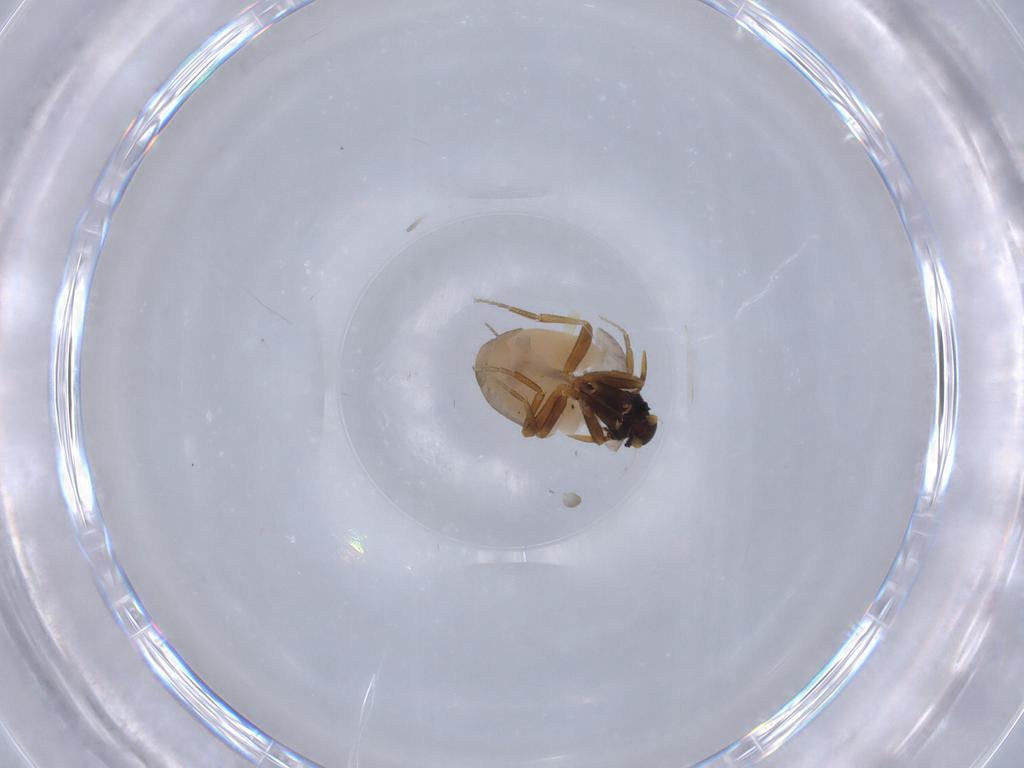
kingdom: Animalia
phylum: Arthropoda
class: Insecta
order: Diptera
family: Phoridae
